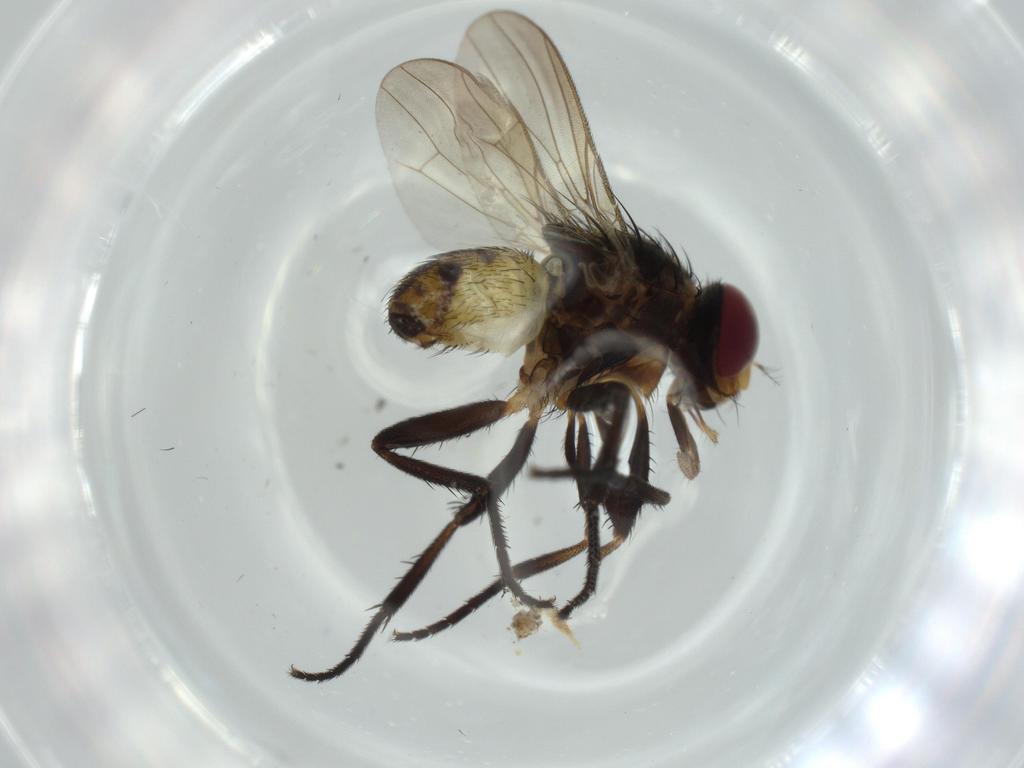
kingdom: Animalia
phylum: Arthropoda
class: Insecta
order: Diptera
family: Anthomyiidae
